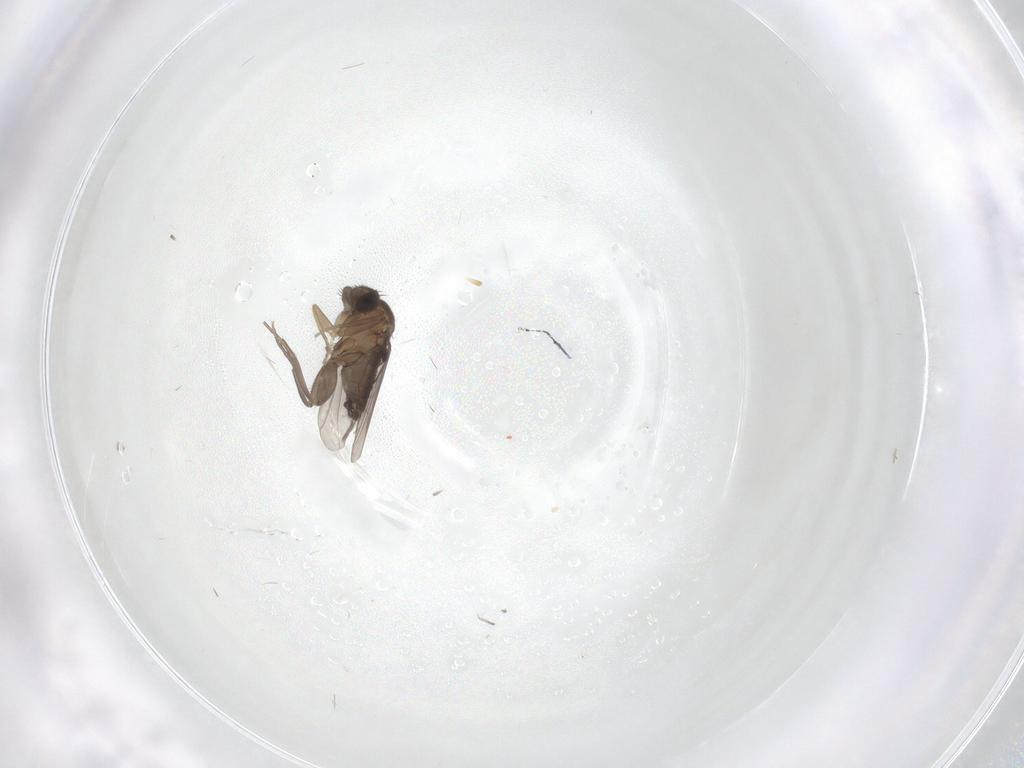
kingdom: Animalia
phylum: Arthropoda
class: Insecta
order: Diptera
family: Phoridae
